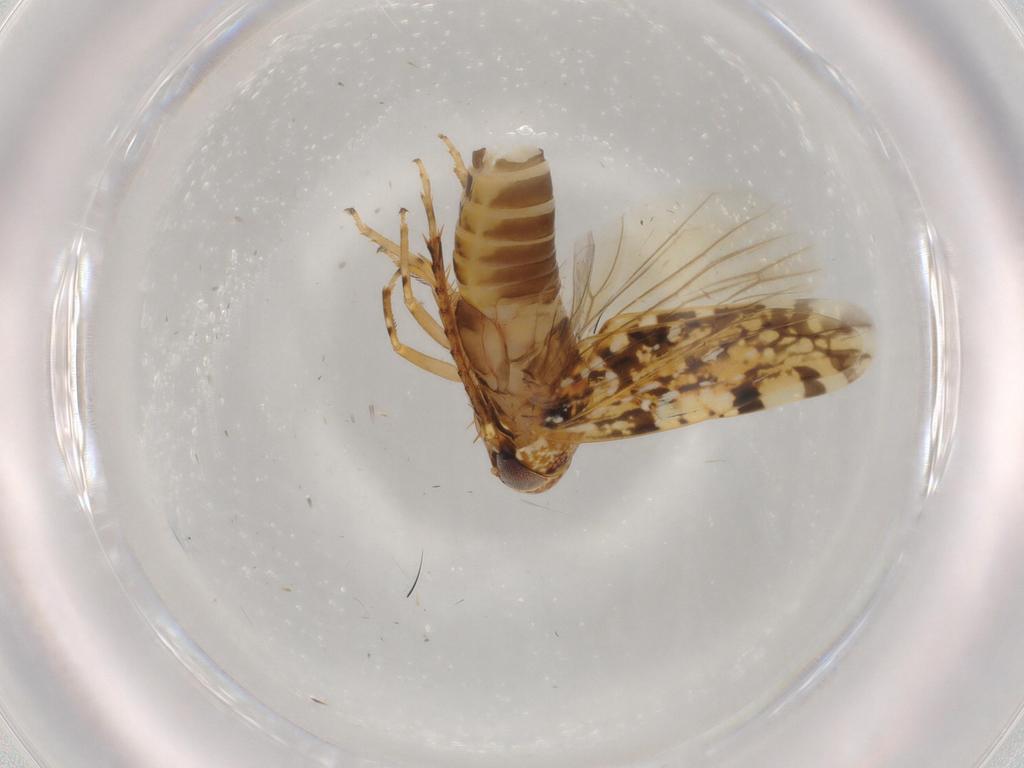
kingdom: Animalia
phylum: Arthropoda
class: Insecta
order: Hemiptera
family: Cicadellidae
